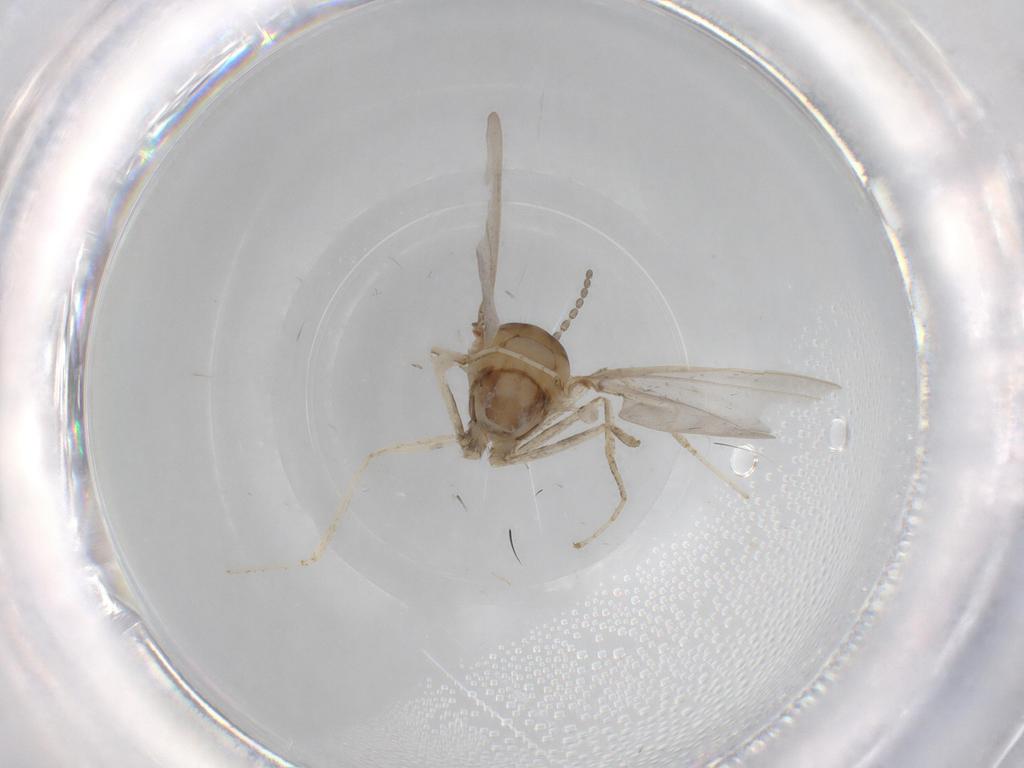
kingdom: Animalia
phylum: Arthropoda
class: Insecta
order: Diptera
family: Cecidomyiidae
